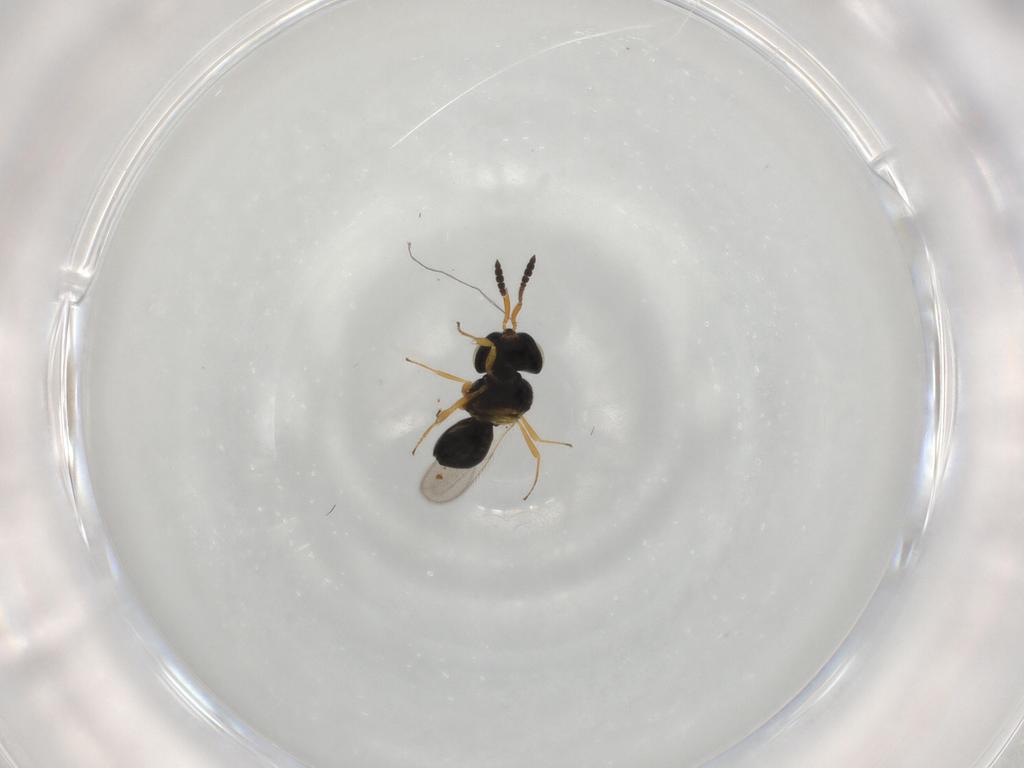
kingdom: Animalia
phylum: Arthropoda
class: Insecta
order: Hymenoptera
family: Scelionidae
